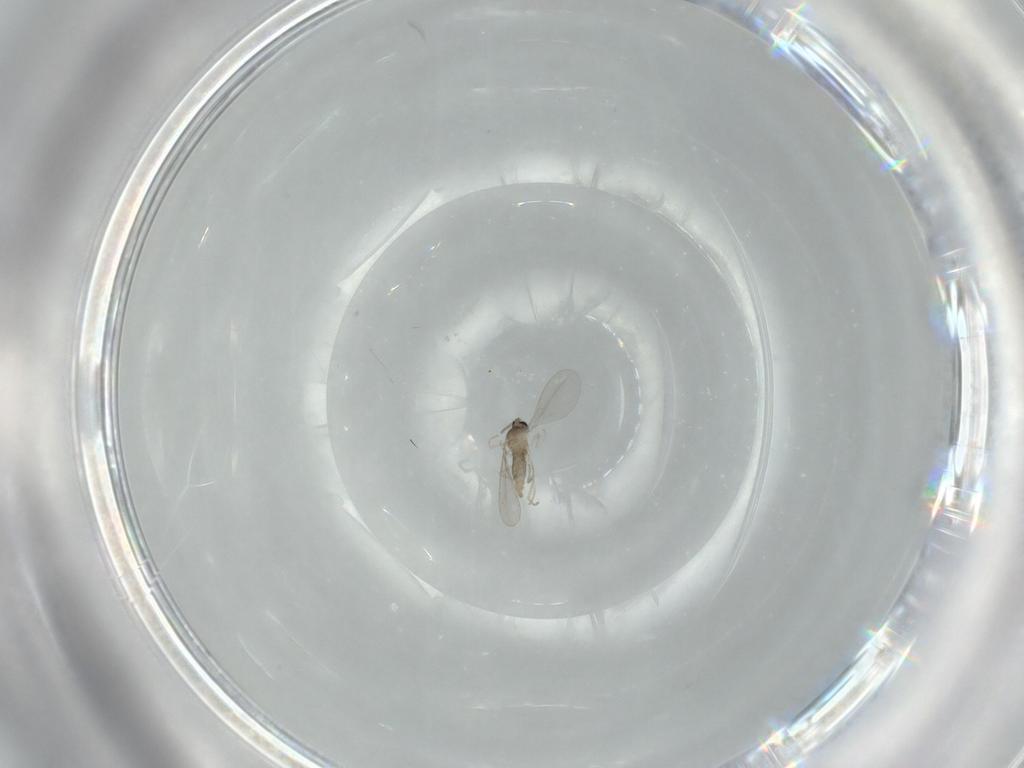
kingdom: Animalia
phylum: Arthropoda
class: Insecta
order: Diptera
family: Cecidomyiidae
